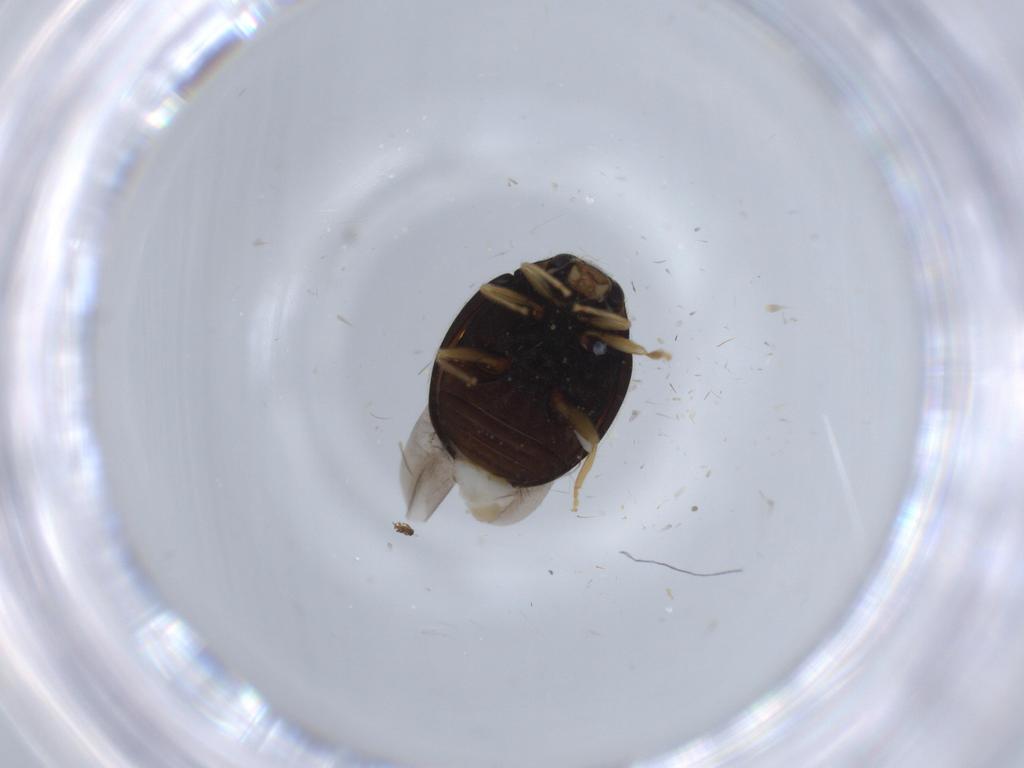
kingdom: Animalia
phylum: Arthropoda
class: Insecta
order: Coleoptera
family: Coccinellidae
